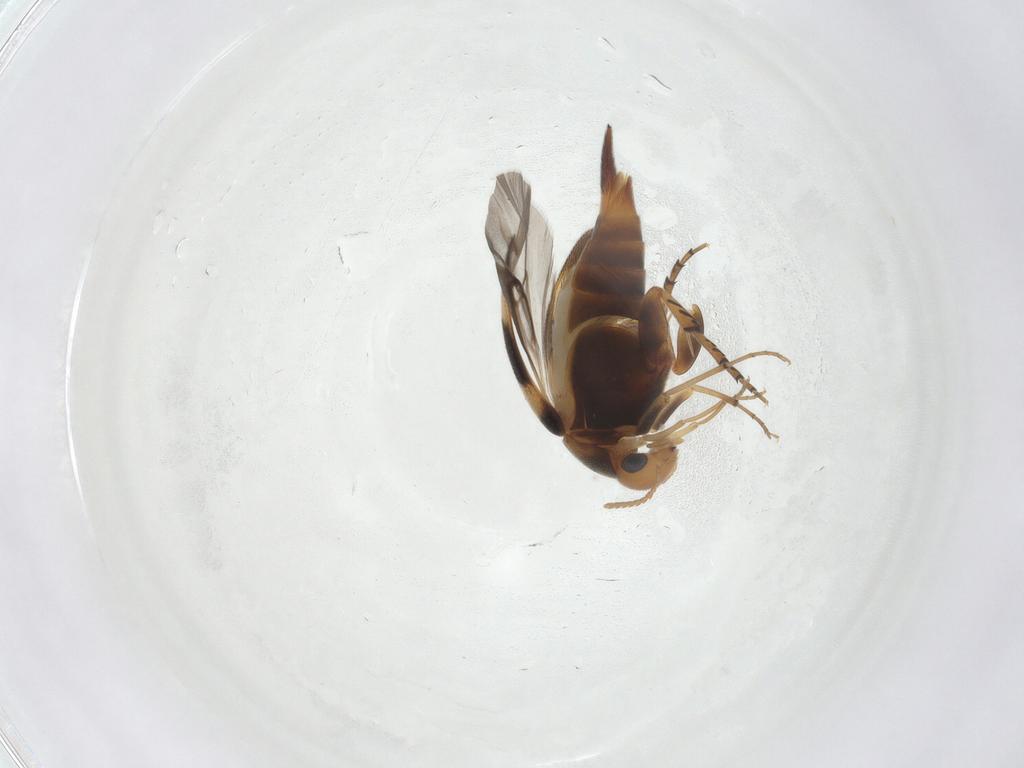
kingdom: Animalia
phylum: Arthropoda
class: Insecta
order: Coleoptera
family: Mordellidae
